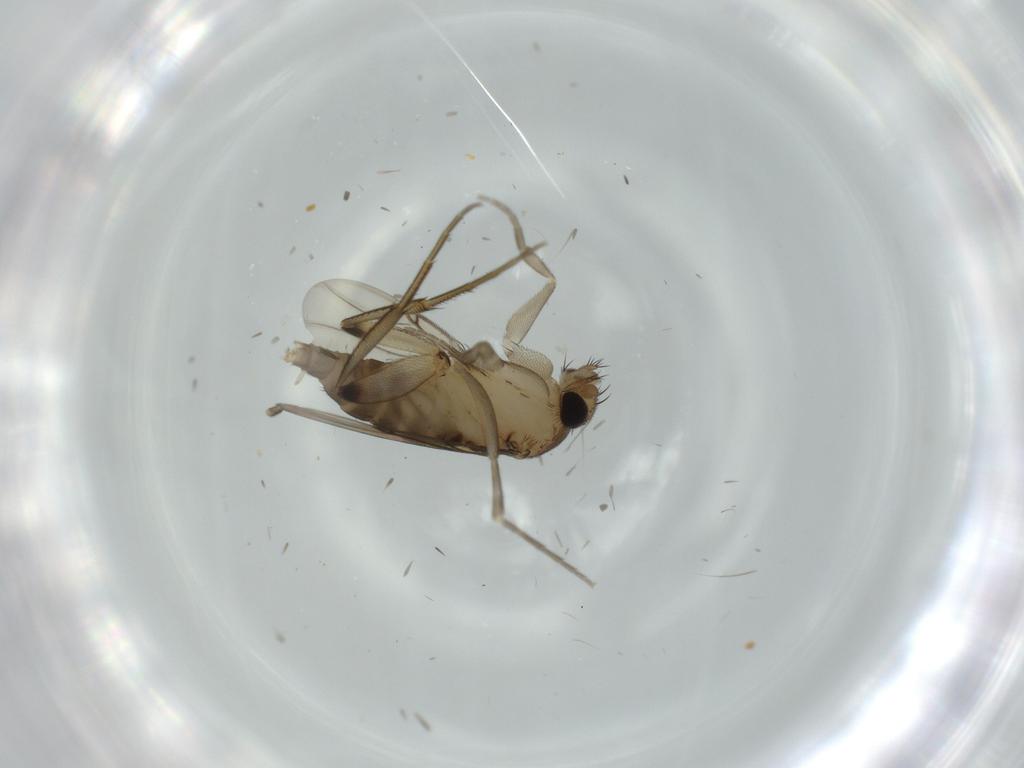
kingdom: Animalia
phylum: Arthropoda
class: Insecta
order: Diptera
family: Phoridae
